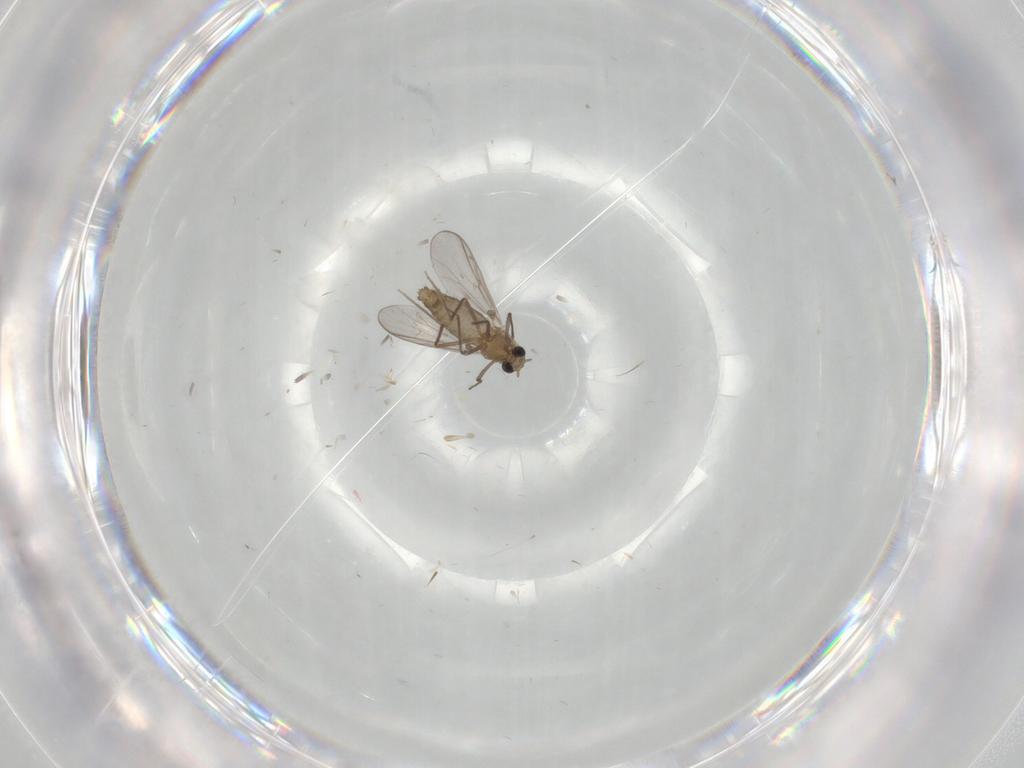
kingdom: Animalia
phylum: Arthropoda
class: Insecta
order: Diptera
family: Chironomidae
